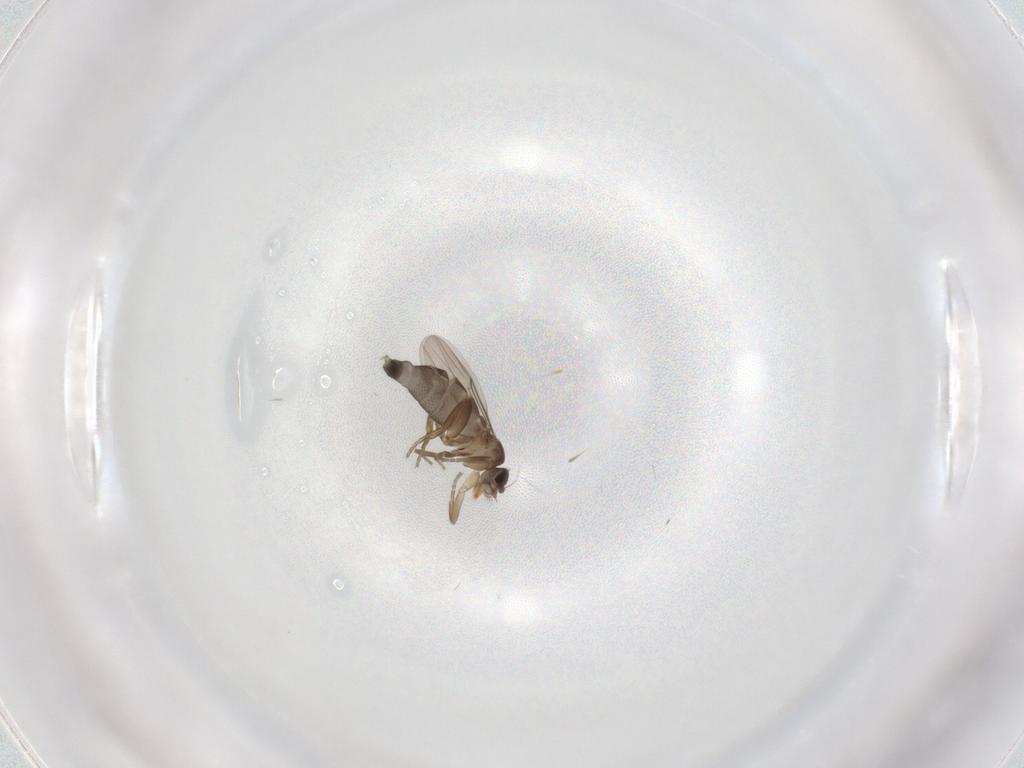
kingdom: Animalia
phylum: Arthropoda
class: Insecta
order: Diptera
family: Phoridae
